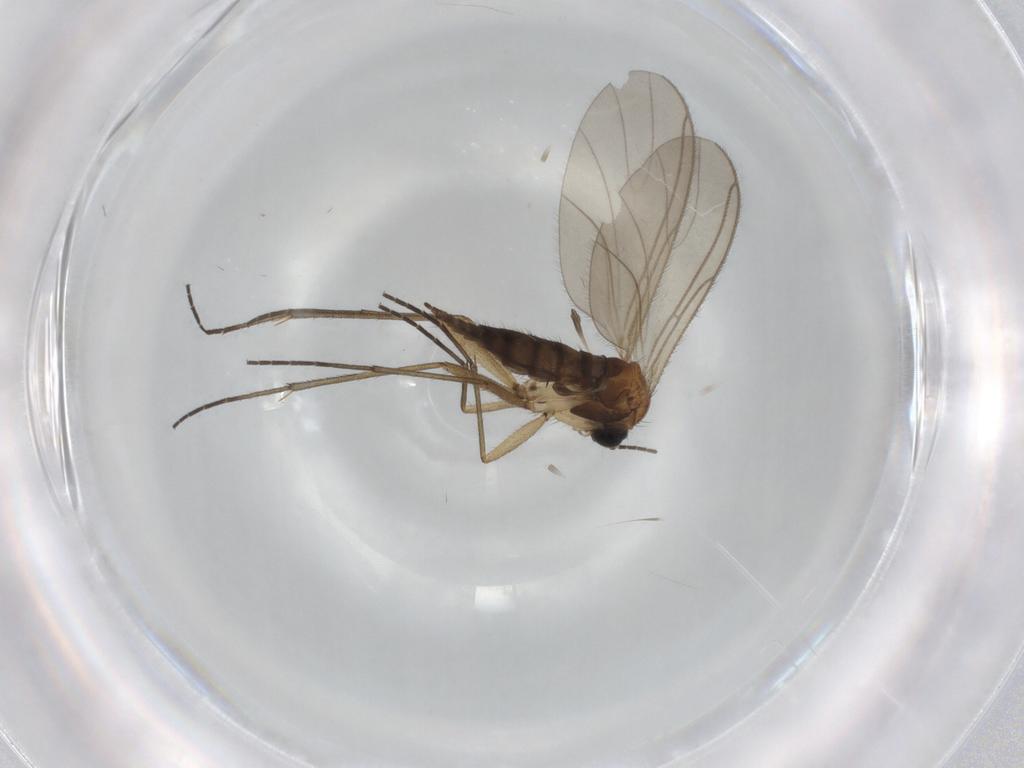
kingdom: Animalia
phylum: Arthropoda
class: Insecta
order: Diptera
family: Sciaridae
